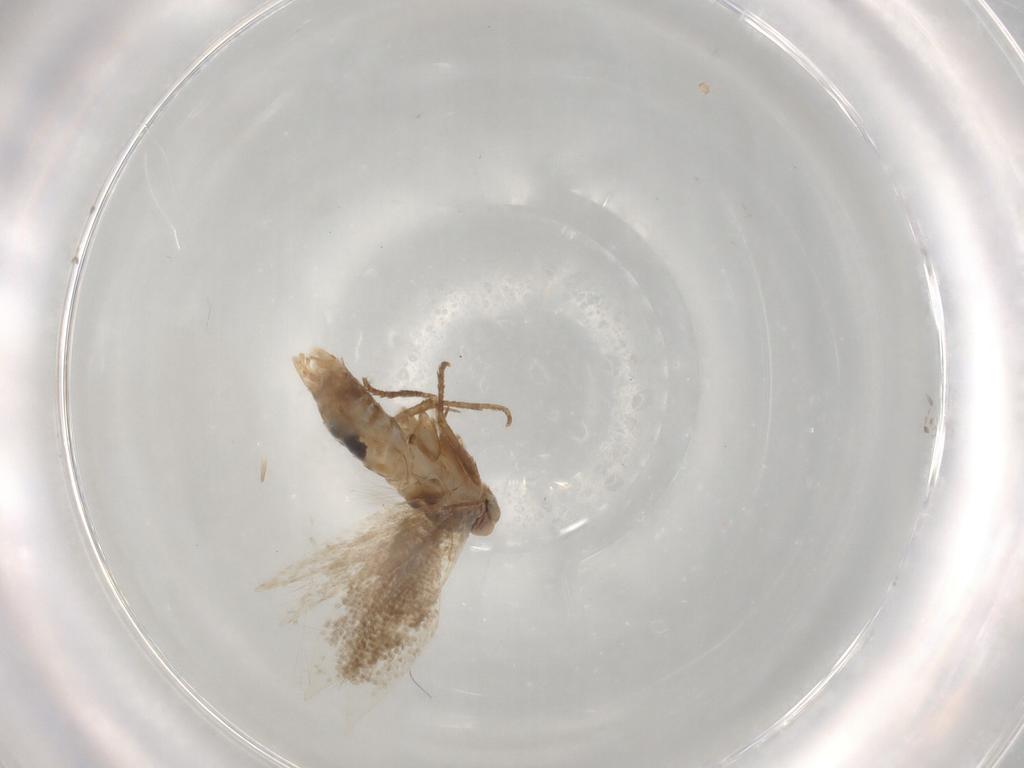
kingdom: Animalia
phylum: Arthropoda
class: Insecta
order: Lepidoptera
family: Bucculatricidae
